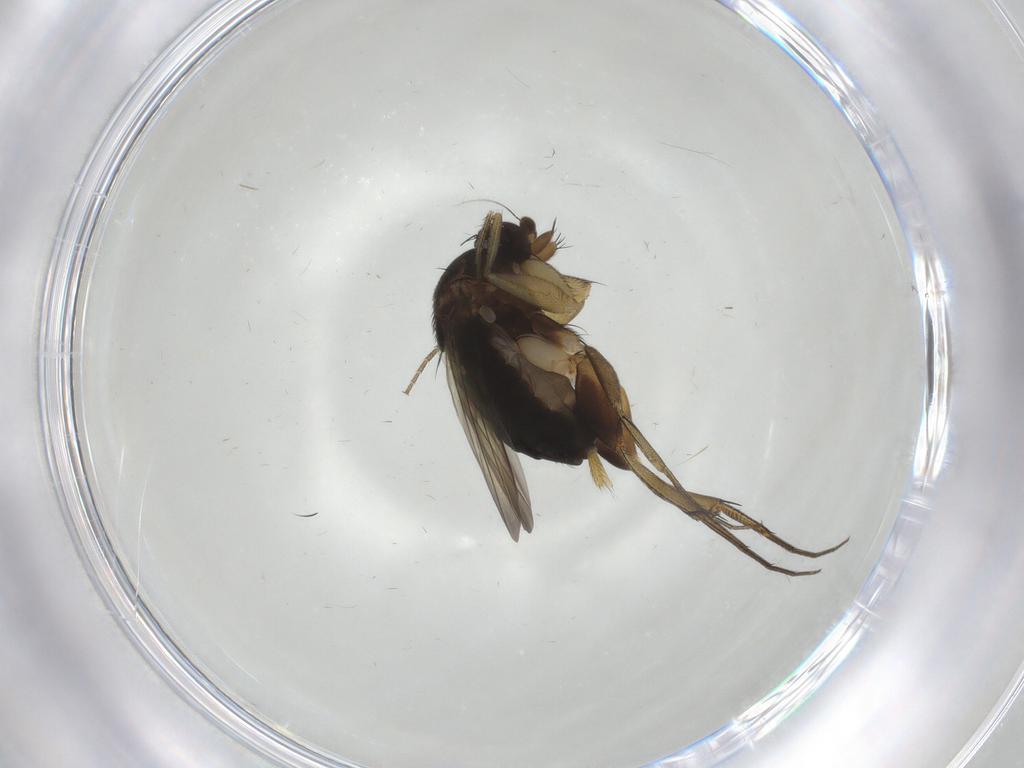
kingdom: Animalia
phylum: Arthropoda
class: Insecta
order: Diptera
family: Phoridae
